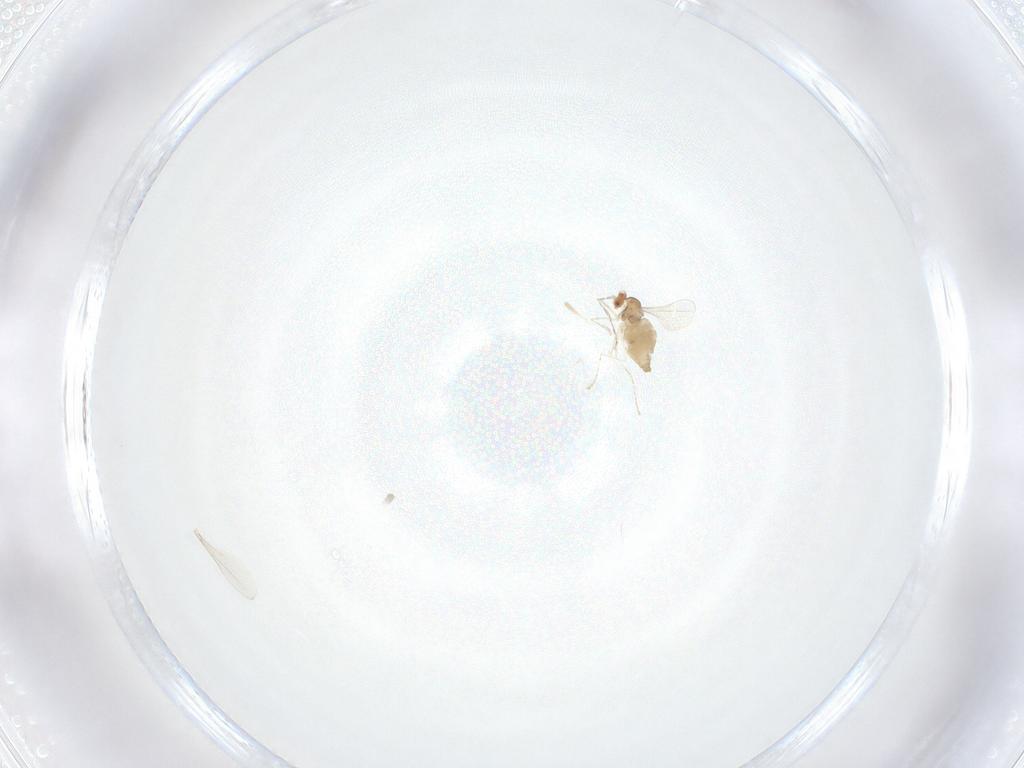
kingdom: Animalia
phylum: Arthropoda
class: Insecta
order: Diptera
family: Cecidomyiidae
